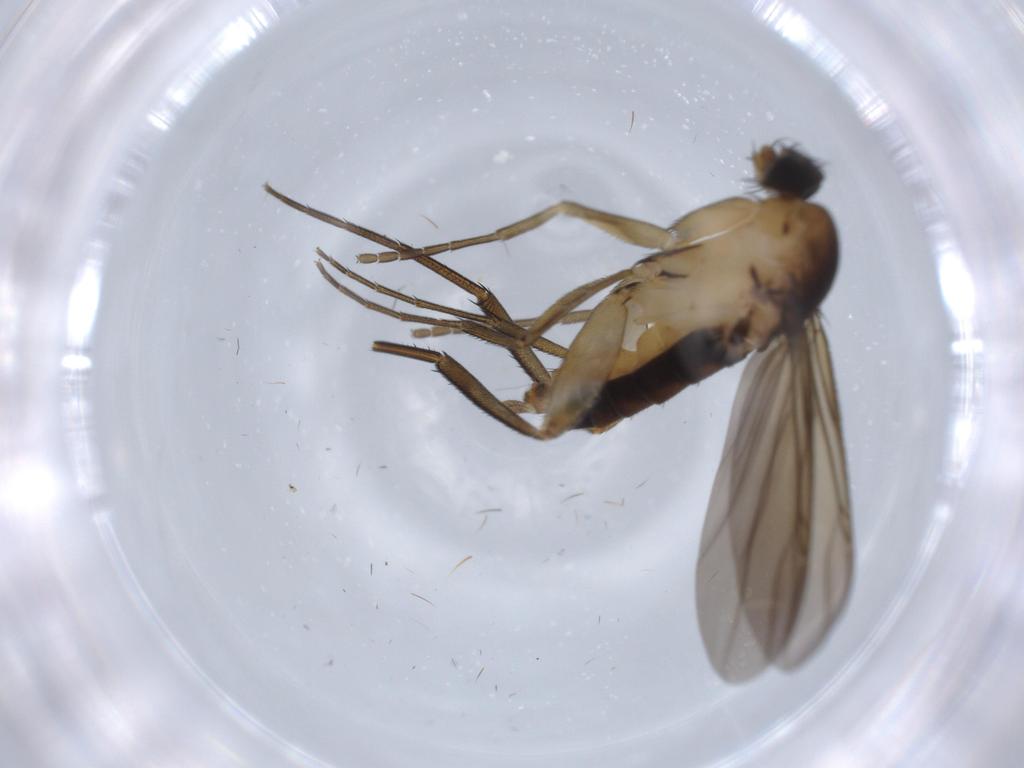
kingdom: Animalia
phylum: Arthropoda
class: Insecta
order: Diptera
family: Phoridae
